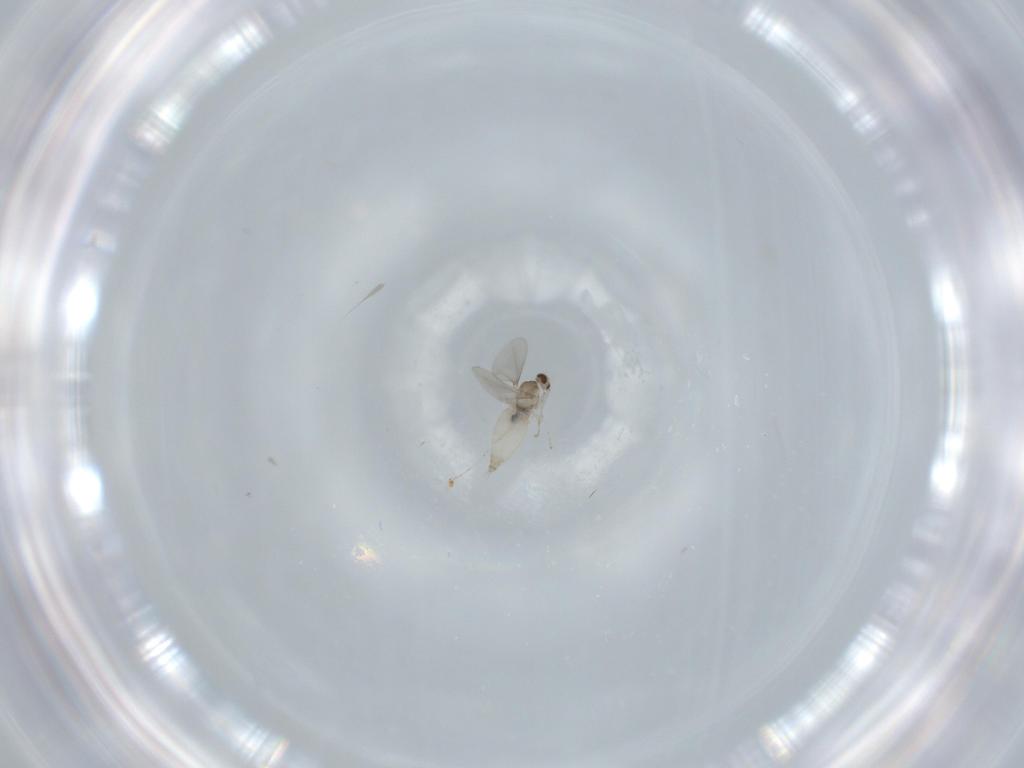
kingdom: Animalia
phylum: Arthropoda
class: Insecta
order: Diptera
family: Cecidomyiidae
